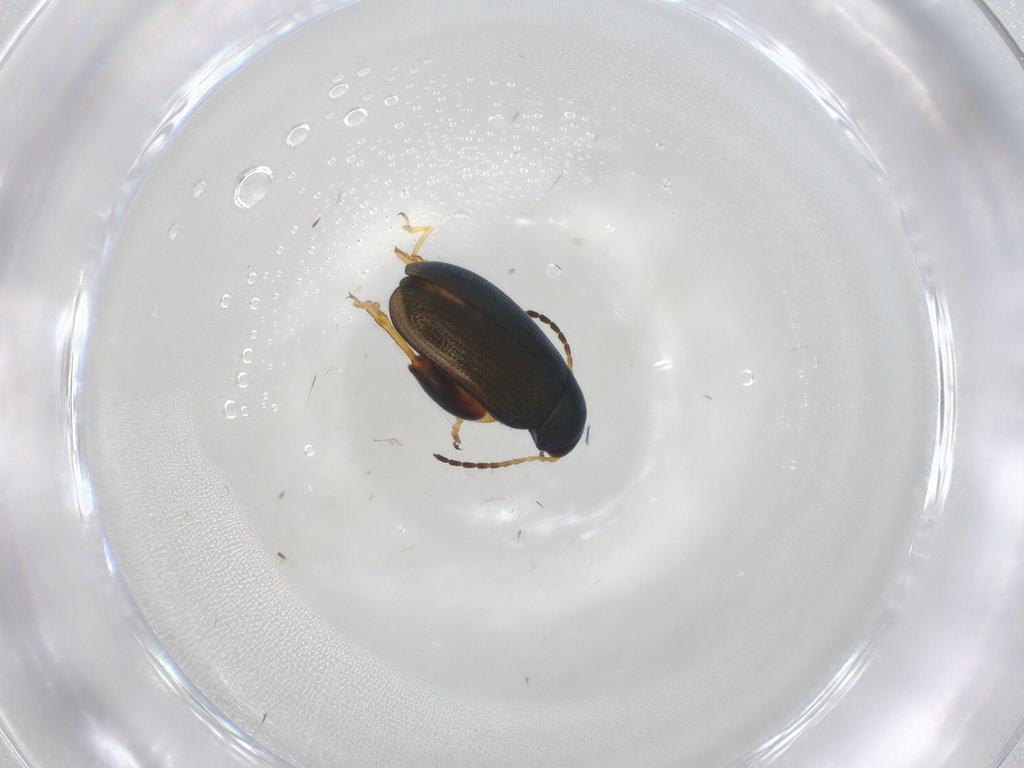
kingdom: Animalia
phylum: Arthropoda
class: Insecta
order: Coleoptera
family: Chrysomelidae
